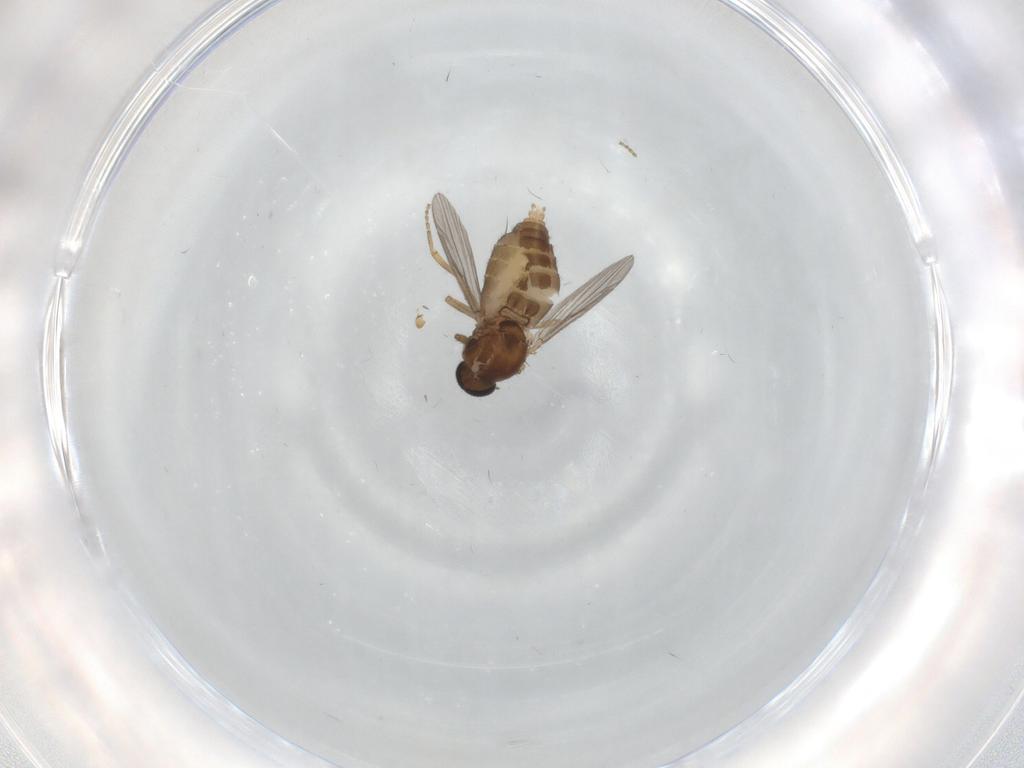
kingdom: Animalia
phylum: Arthropoda
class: Insecta
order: Diptera
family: Ceratopogonidae
